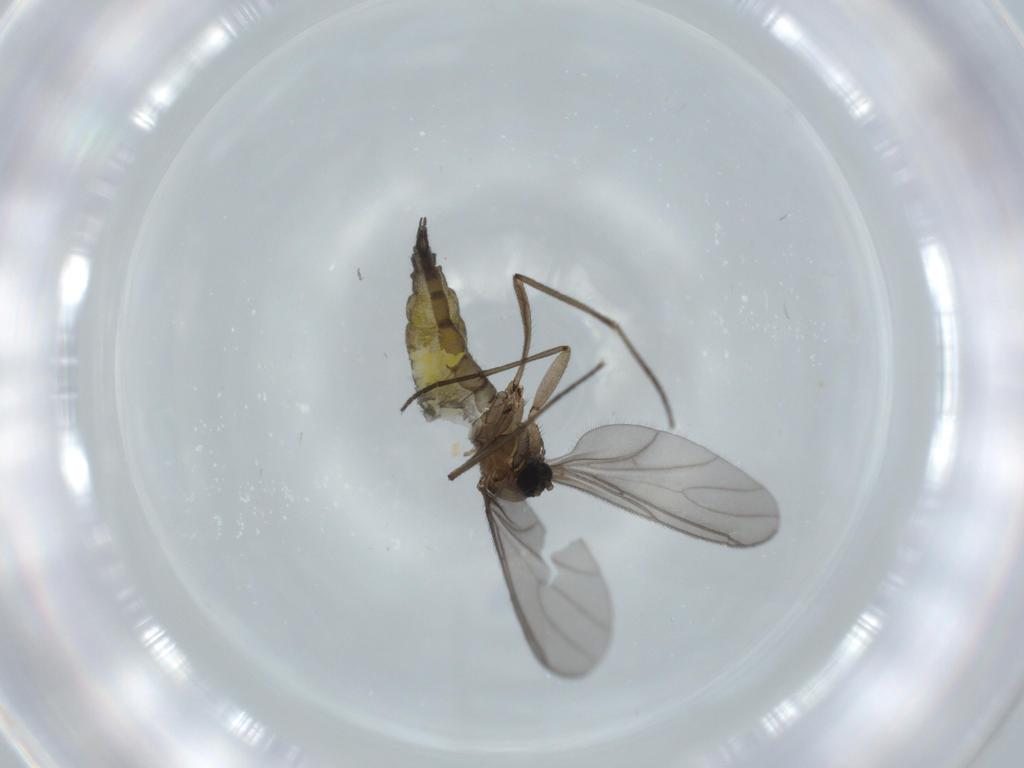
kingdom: Animalia
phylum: Arthropoda
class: Insecta
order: Diptera
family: Sciaridae
